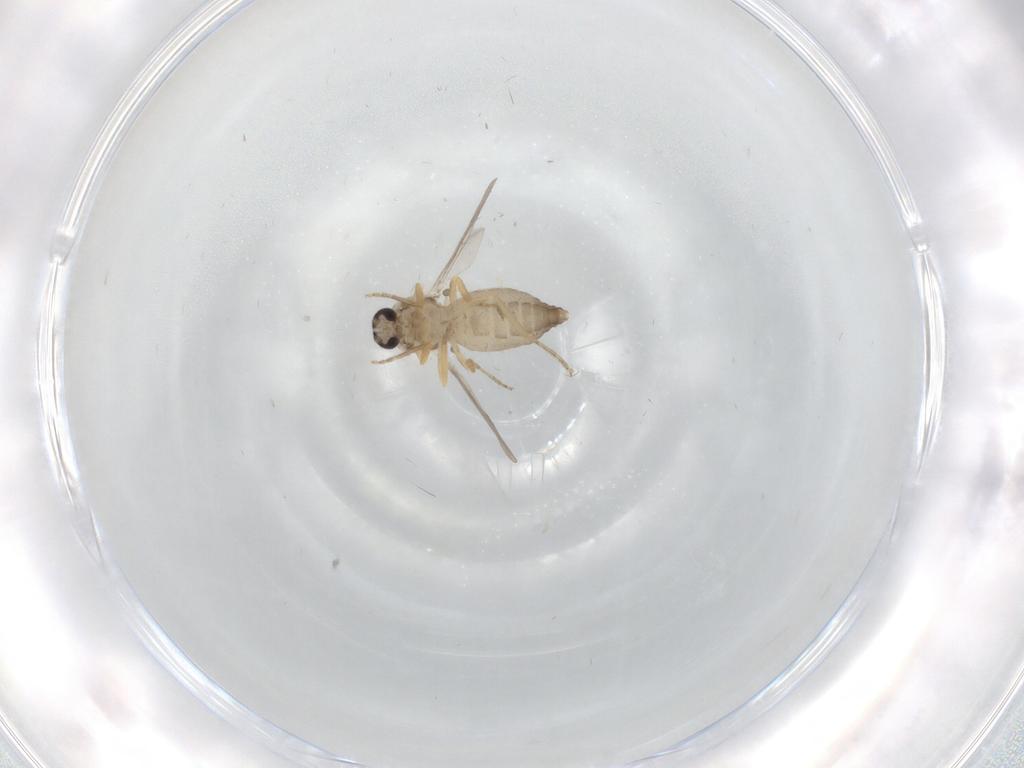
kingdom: Animalia
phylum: Arthropoda
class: Insecta
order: Diptera
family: Ceratopogonidae
